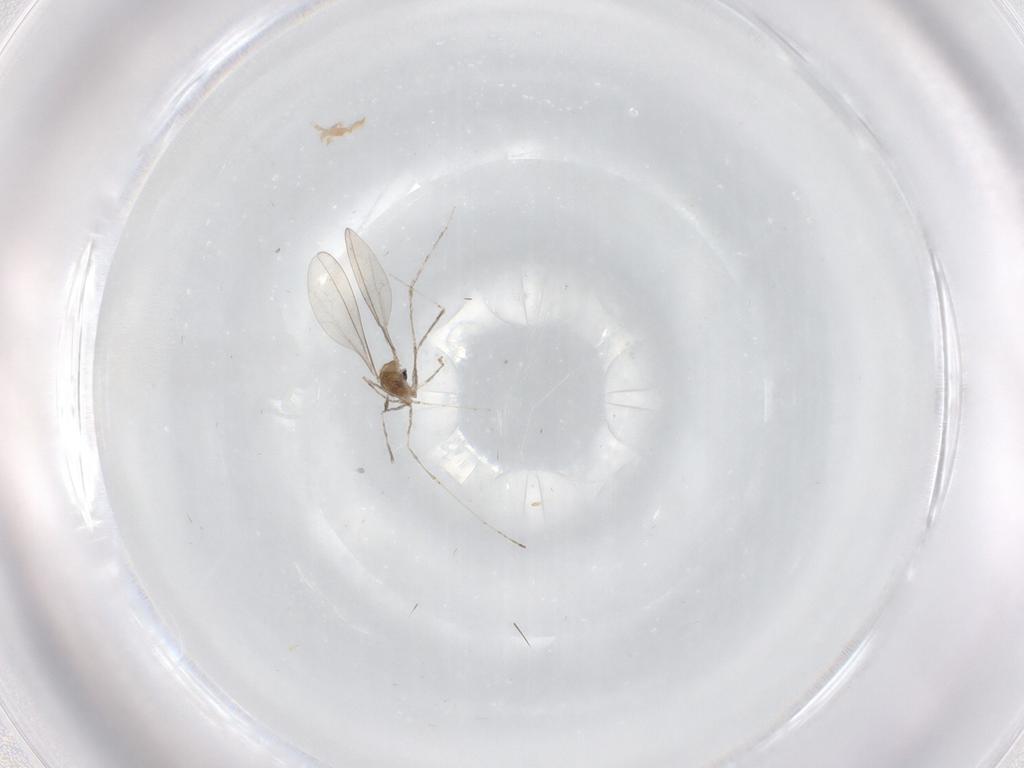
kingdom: Animalia
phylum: Arthropoda
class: Insecta
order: Diptera
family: Cecidomyiidae
